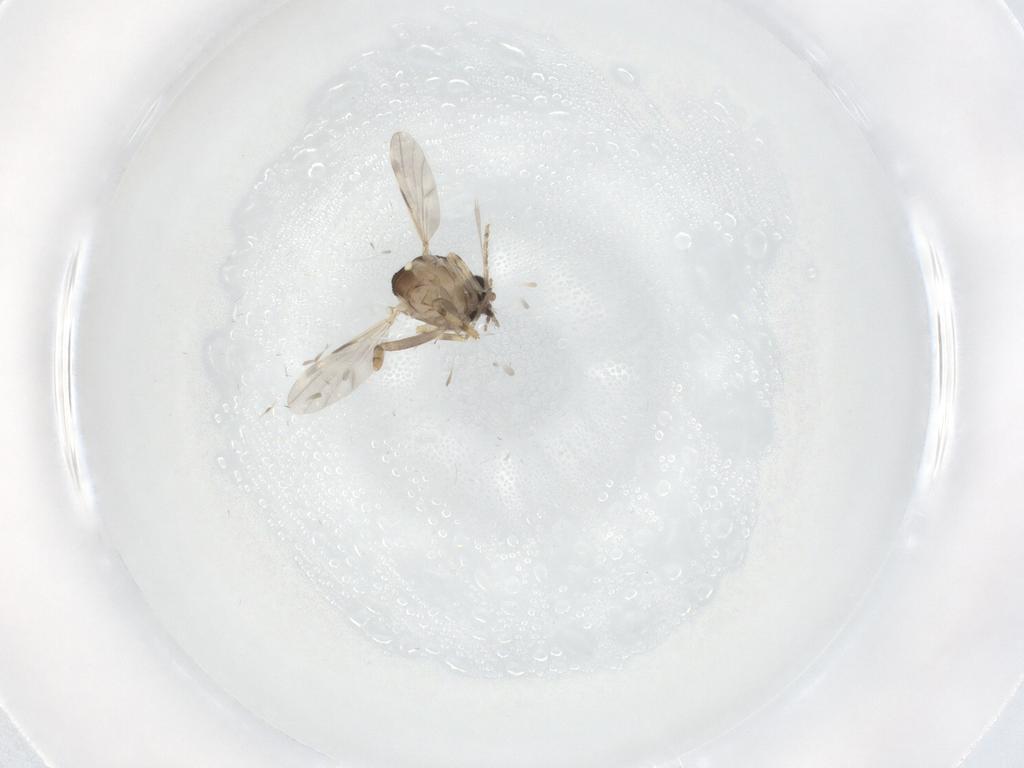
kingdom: Animalia
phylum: Arthropoda
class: Insecta
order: Diptera
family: Ceratopogonidae
